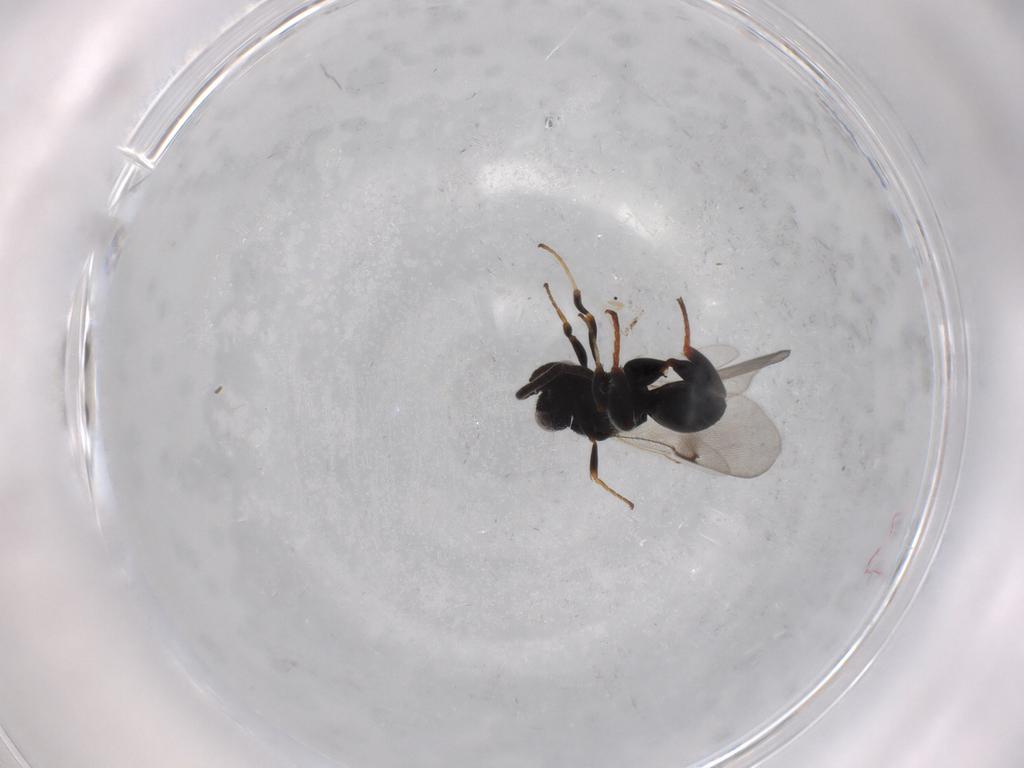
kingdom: Animalia
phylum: Arthropoda
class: Insecta
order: Hymenoptera
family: Chalcididae
